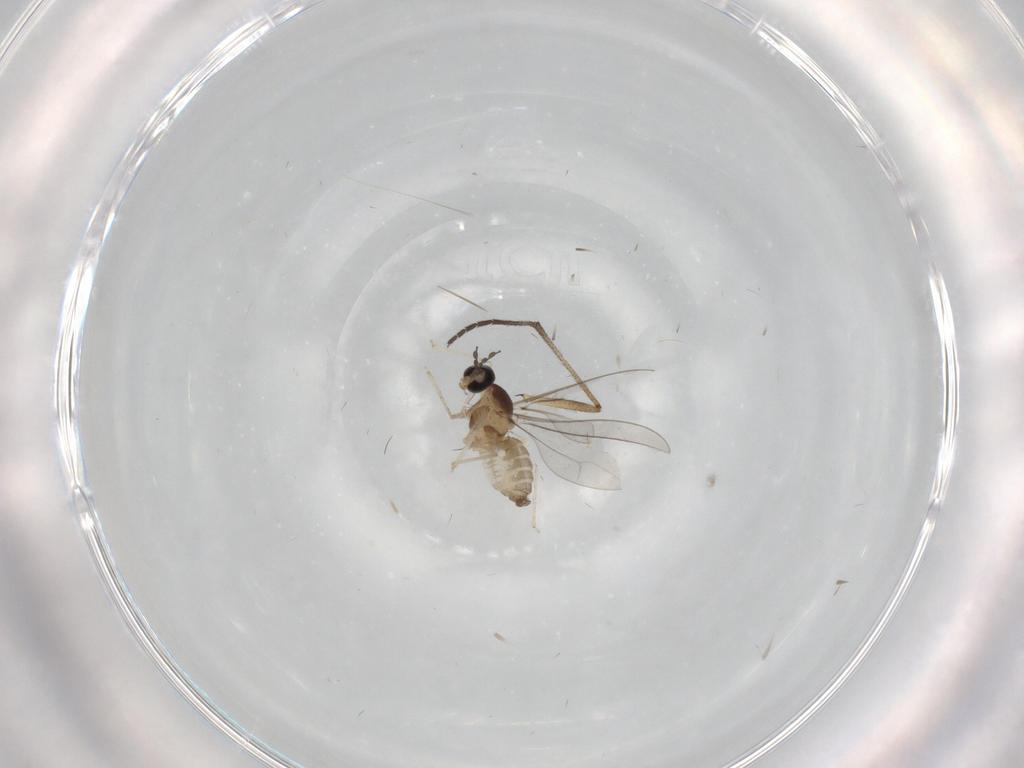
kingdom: Animalia
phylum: Arthropoda
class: Insecta
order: Diptera
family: Cecidomyiidae
